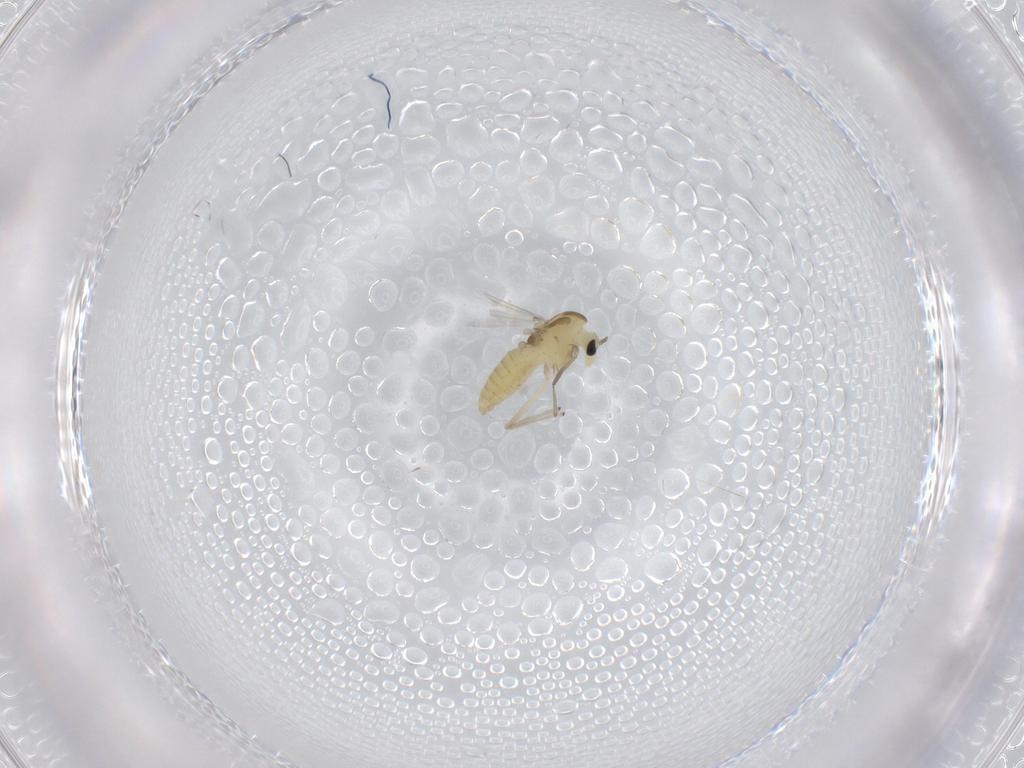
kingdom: Animalia
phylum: Arthropoda
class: Insecta
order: Diptera
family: Chironomidae
